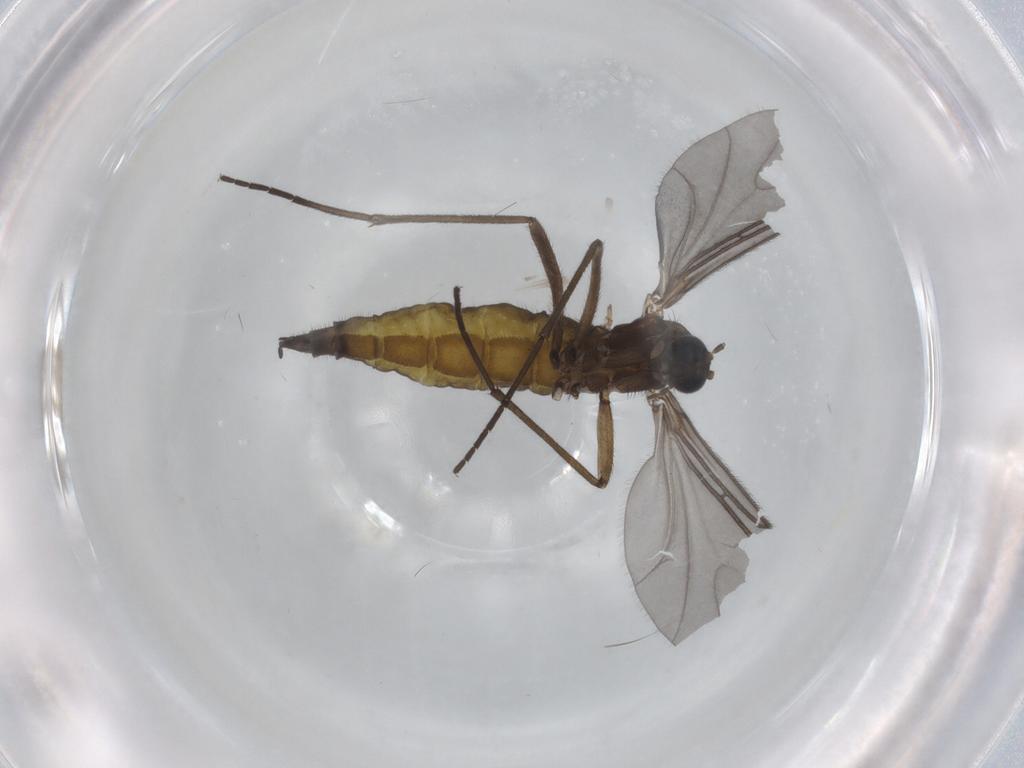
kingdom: Animalia
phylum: Arthropoda
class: Insecta
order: Diptera
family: Sciaridae
